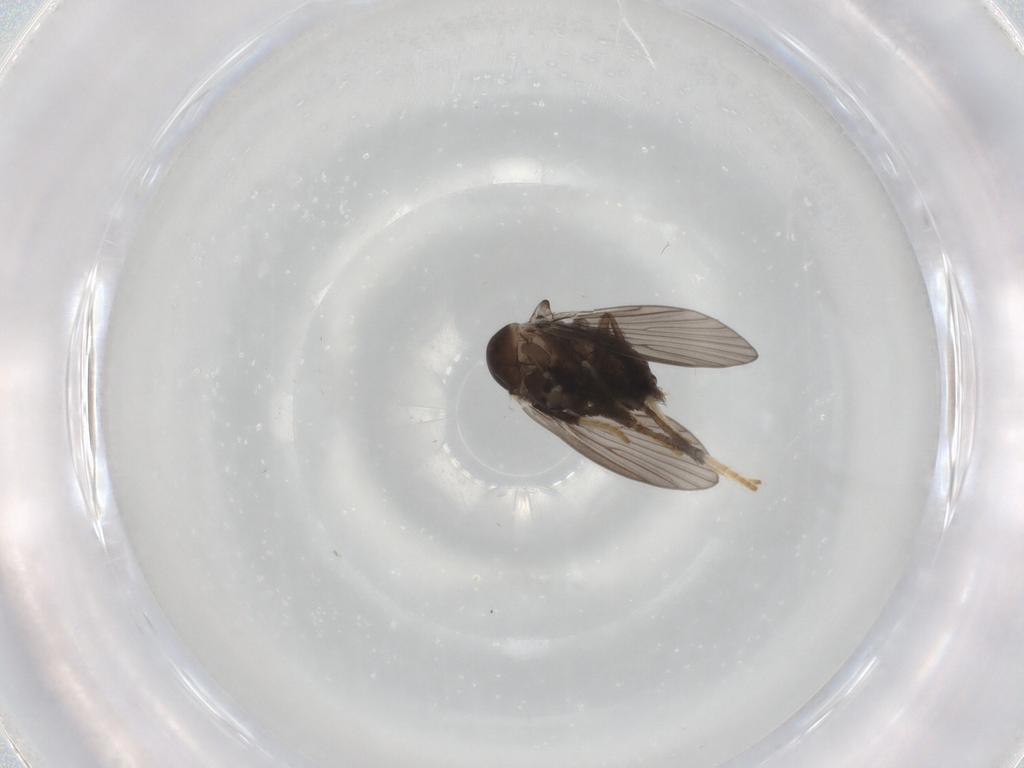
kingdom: Animalia
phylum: Arthropoda
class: Insecta
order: Diptera
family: Psychodidae
